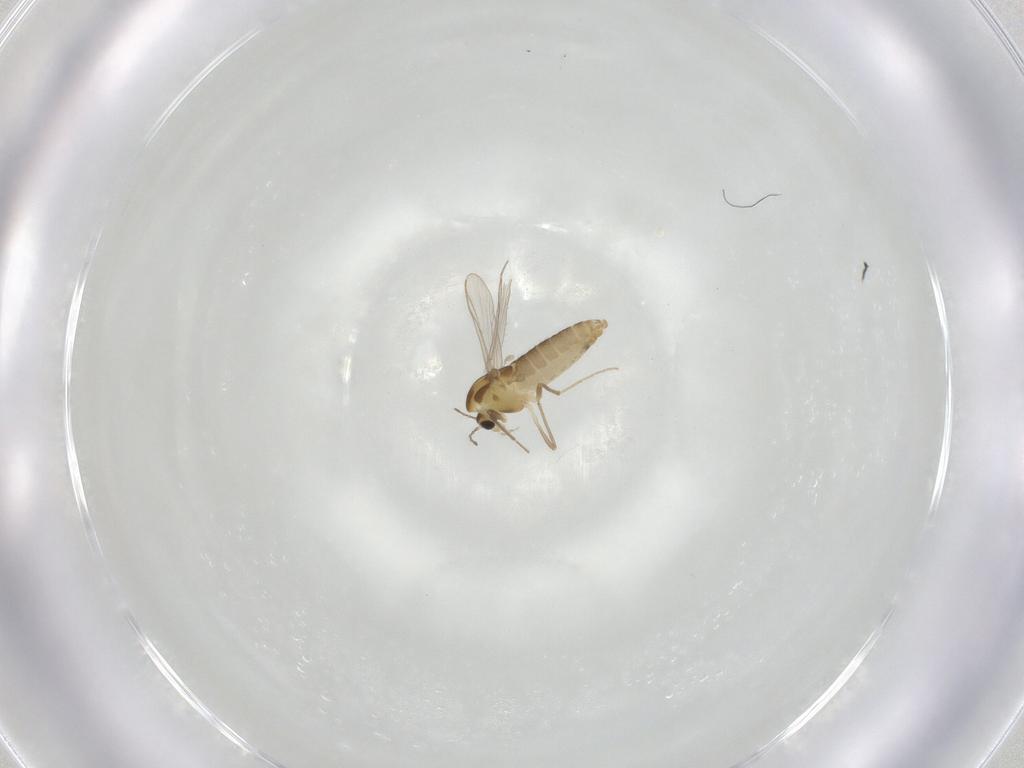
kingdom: Animalia
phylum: Arthropoda
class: Insecta
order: Diptera
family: Chironomidae
